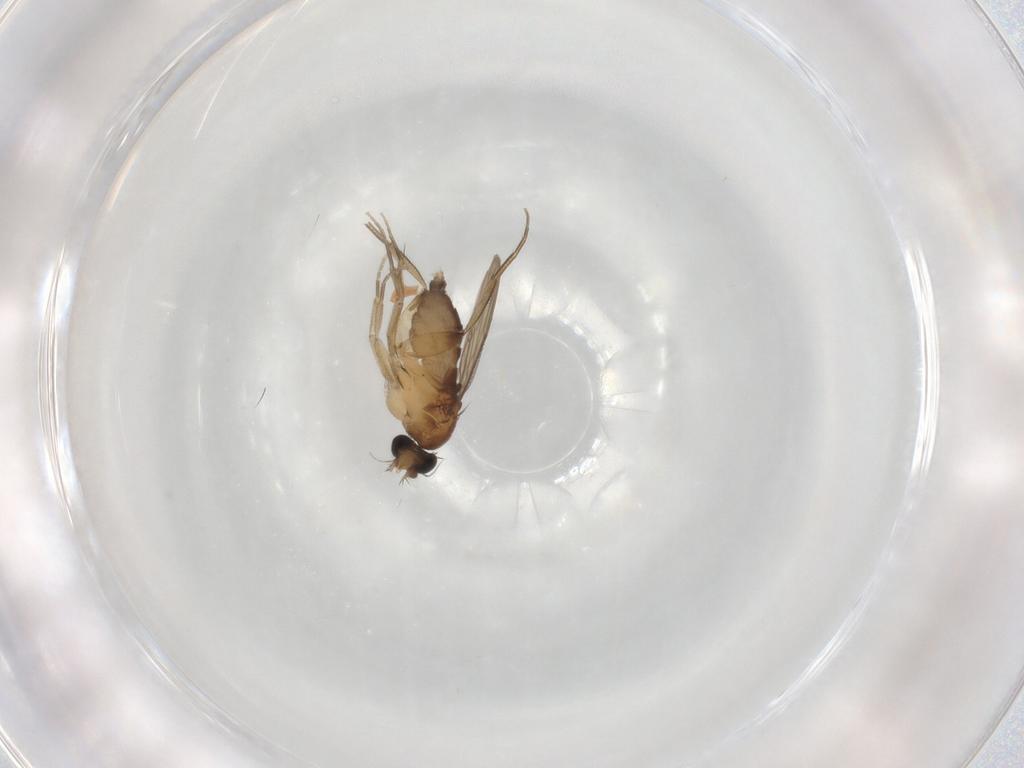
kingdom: Animalia
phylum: Arthropoda
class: Insecta
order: Diptera
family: Phoridae
